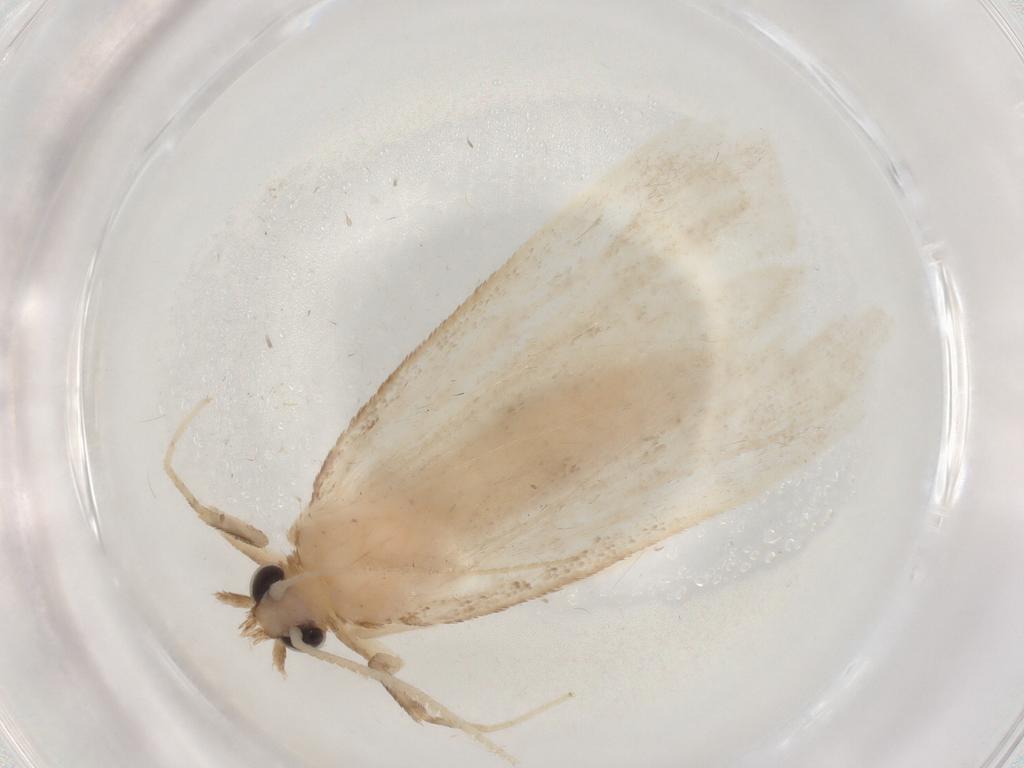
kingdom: Animalia
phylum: Arthropoda
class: Insecta
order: Lepidoptera
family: Crambidae
